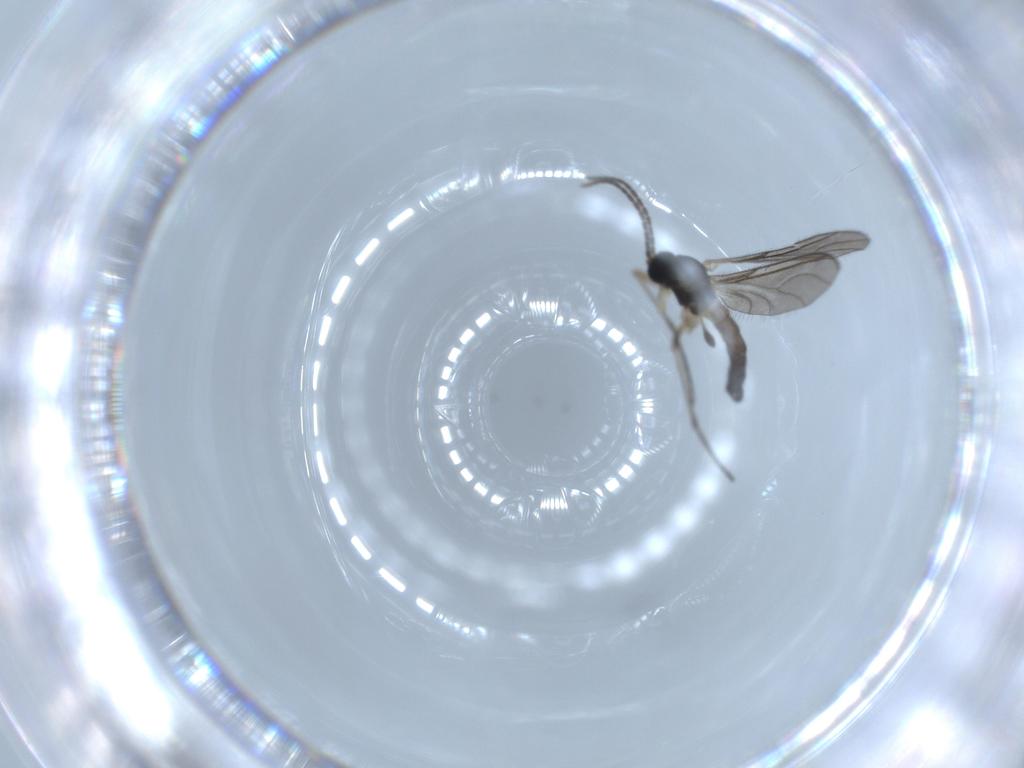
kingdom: Animalia
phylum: Arthropoda
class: Insecta
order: Diptera
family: Sciaridae
